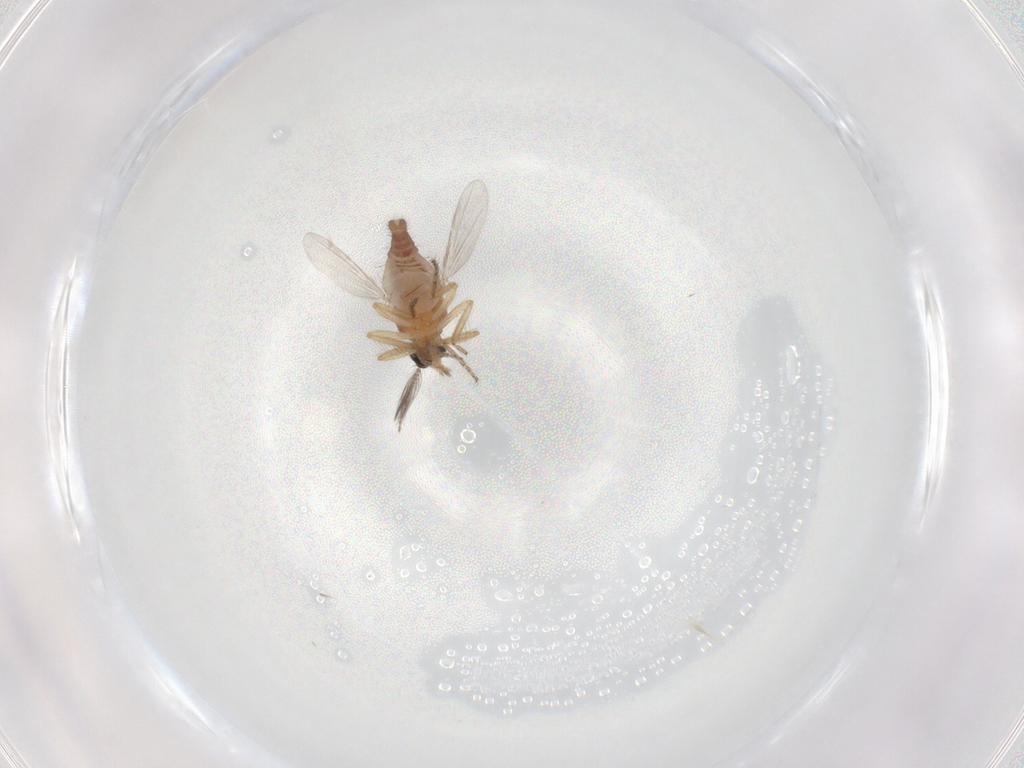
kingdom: Animalia
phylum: Arthropoda
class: Insecta
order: Diptera
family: Ceratopogonidae
